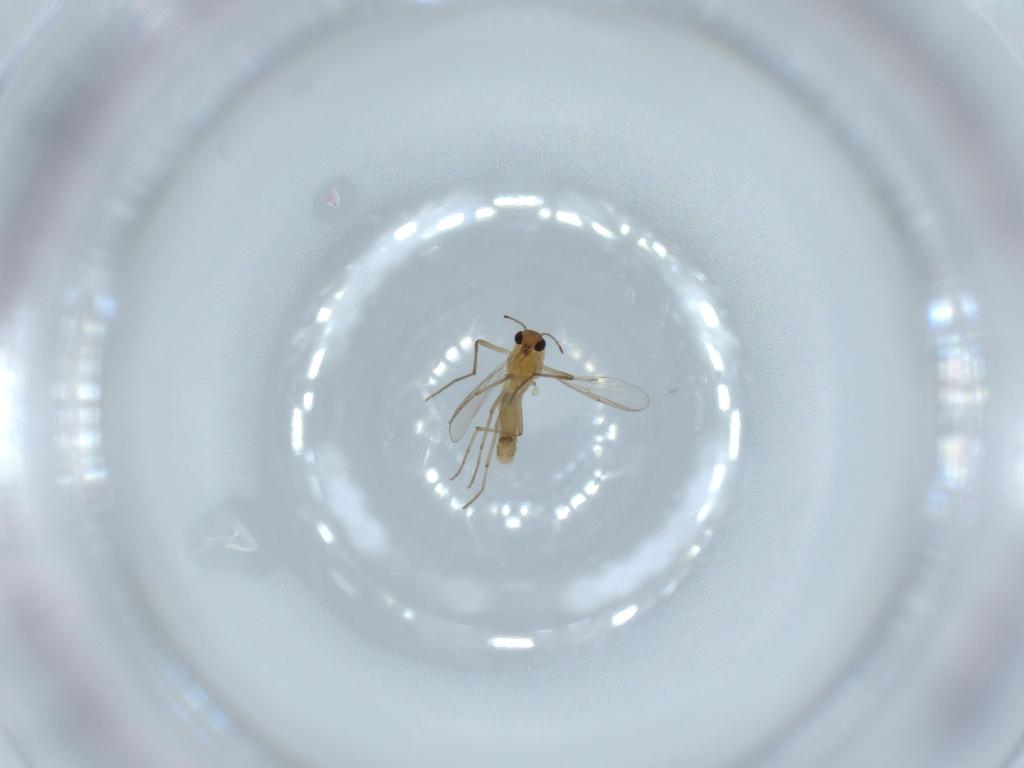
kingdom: Animalia
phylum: Arthropoda
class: Insecta
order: Diptera
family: Chironomidae
